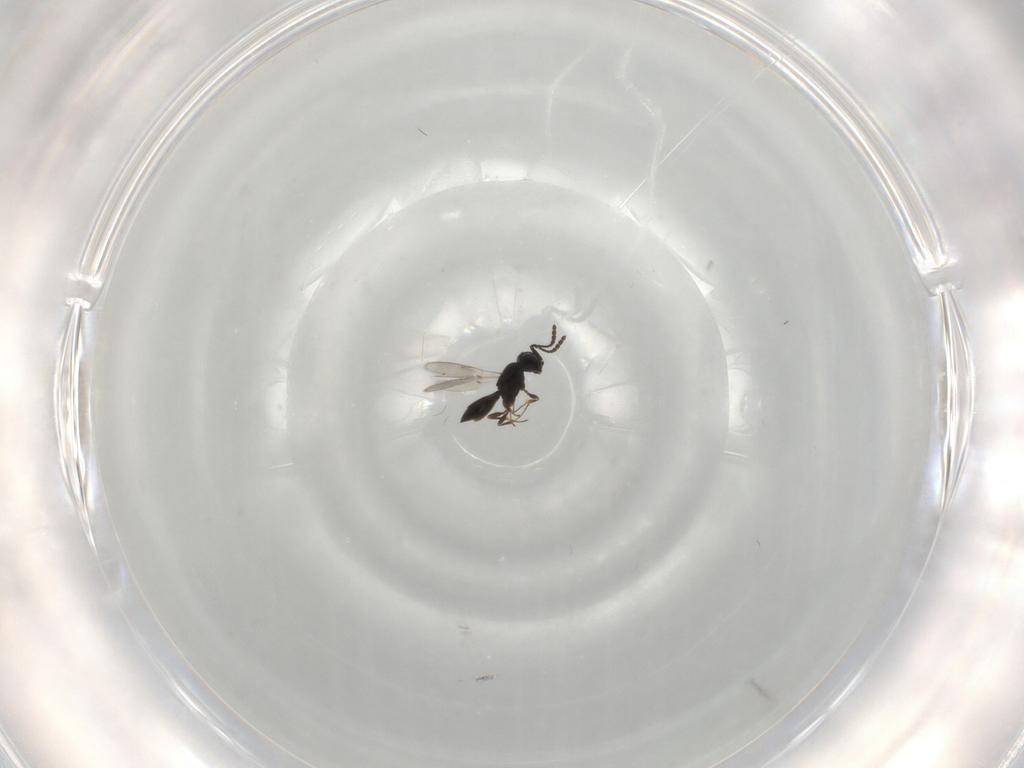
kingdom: Animalia
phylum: Arthropoda
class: Insecta
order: Hymenoptera
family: Scelionidae
